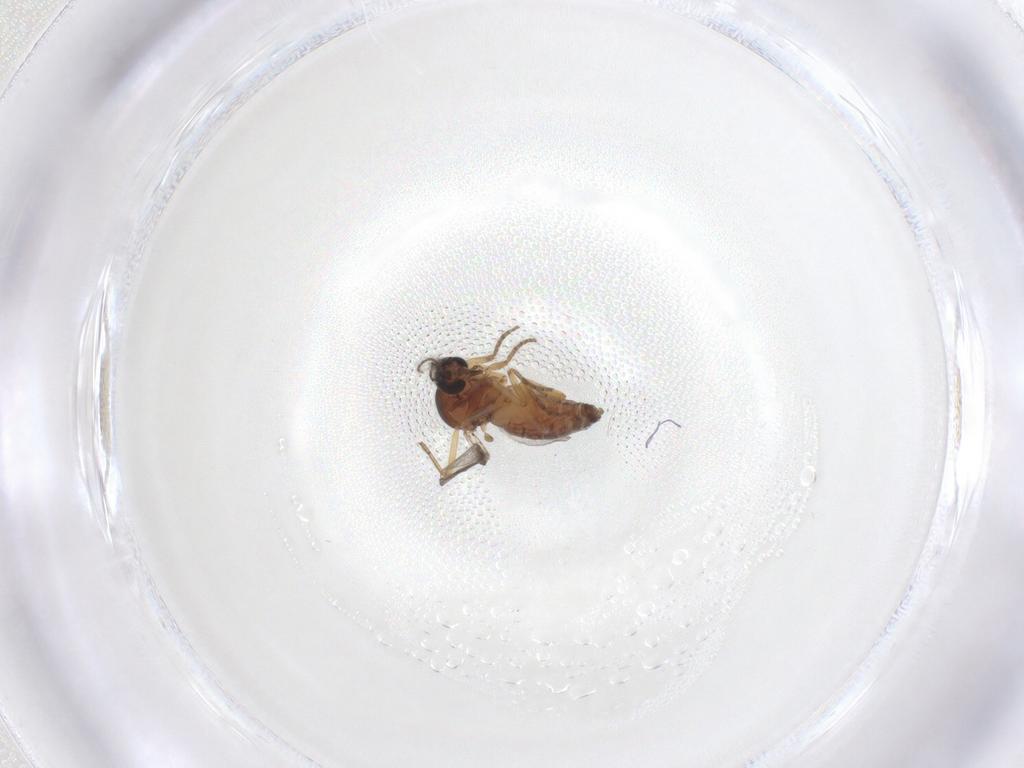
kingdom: Animalia
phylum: Arthropoda
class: Insecta
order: Diptera
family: Ceratopogonidae
